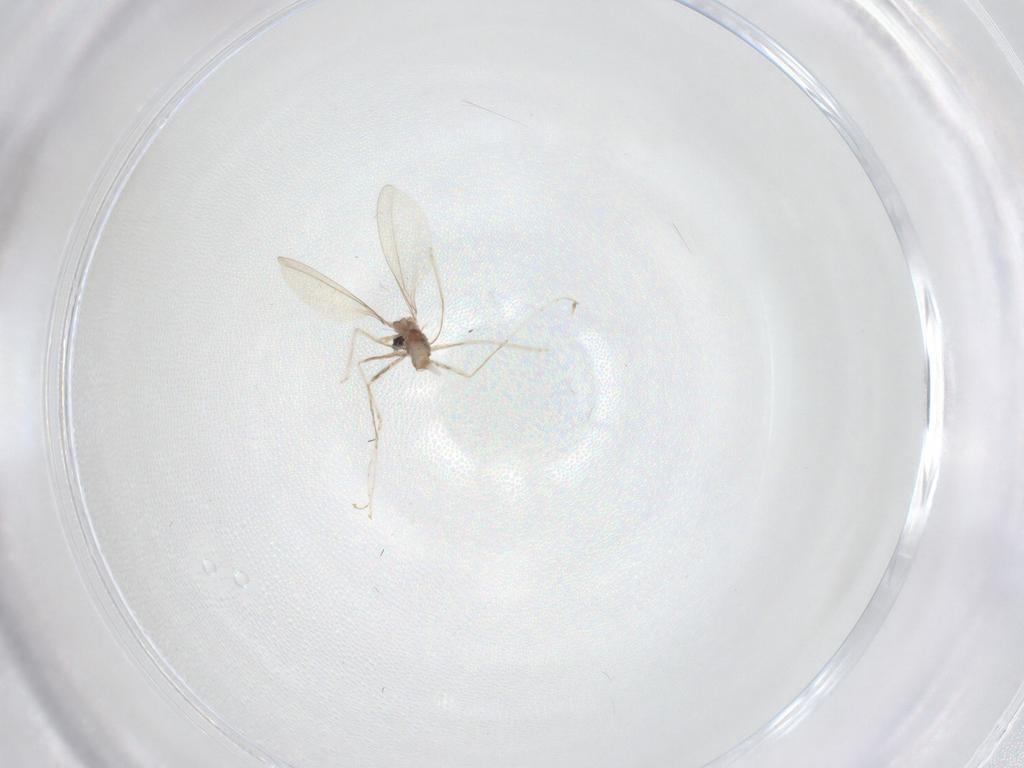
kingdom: Animalia
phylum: Arthropoda
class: Insecta
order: Diptera
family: Cecidomyiidae
